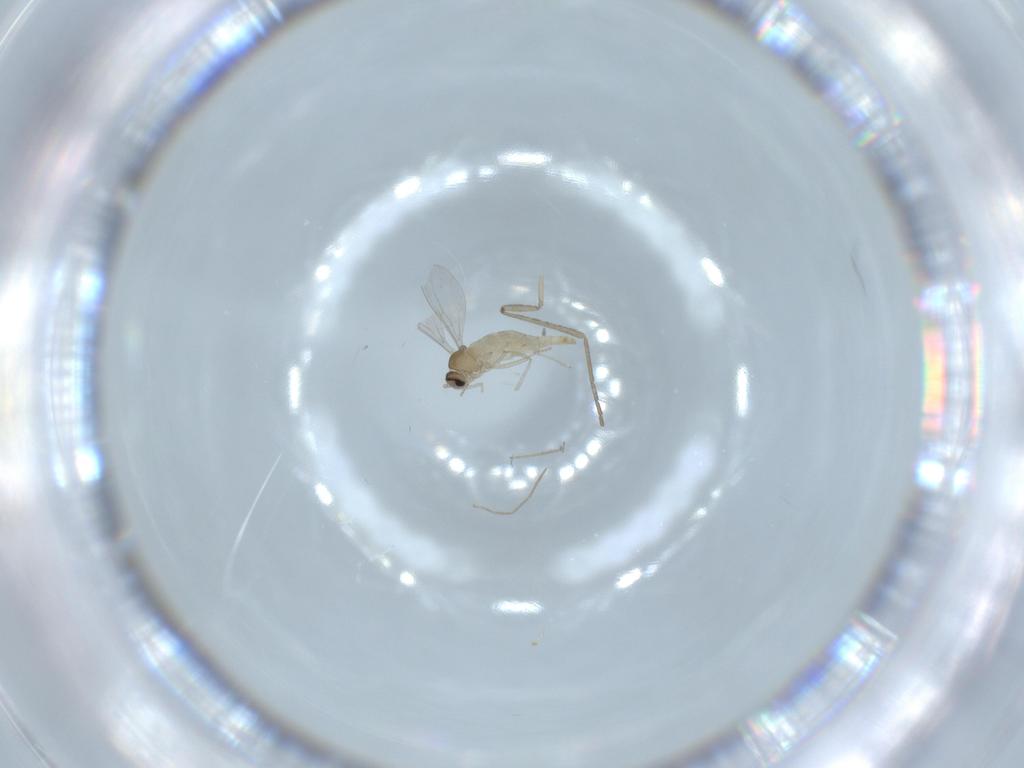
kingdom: Animalia
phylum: Arthropoda
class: Insecta
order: Diptera
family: Cecidomyiidae
